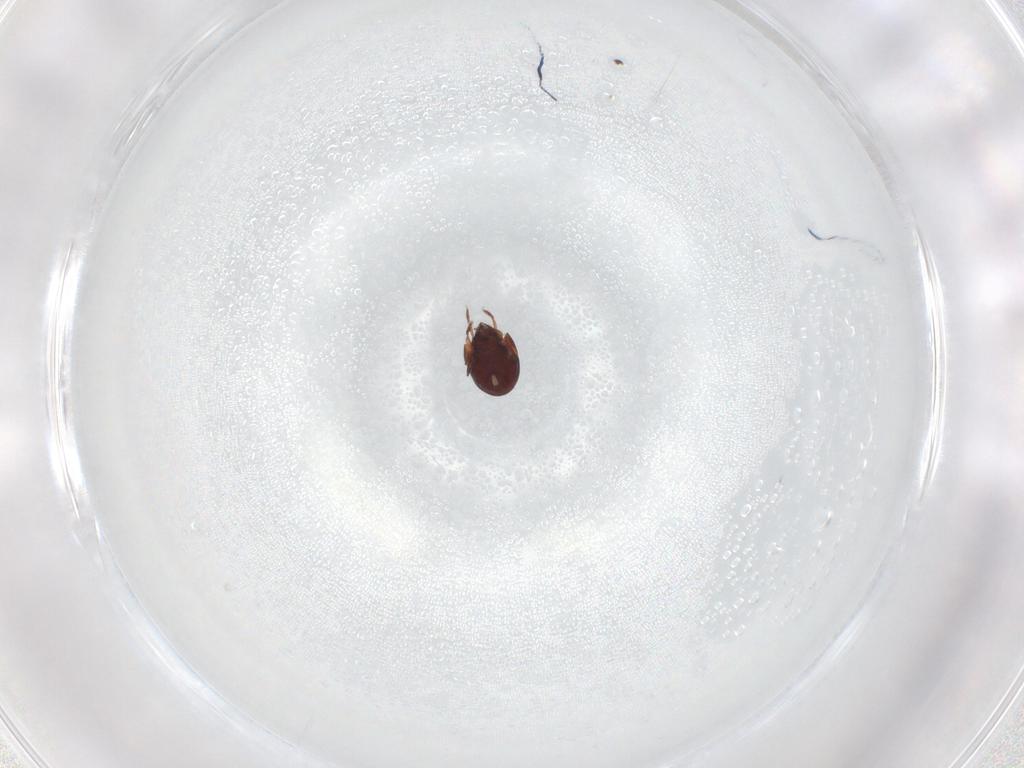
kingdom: Animalia
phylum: Arthropoda
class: Arachnida
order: Sarcoptiformes
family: Humerobatidae
